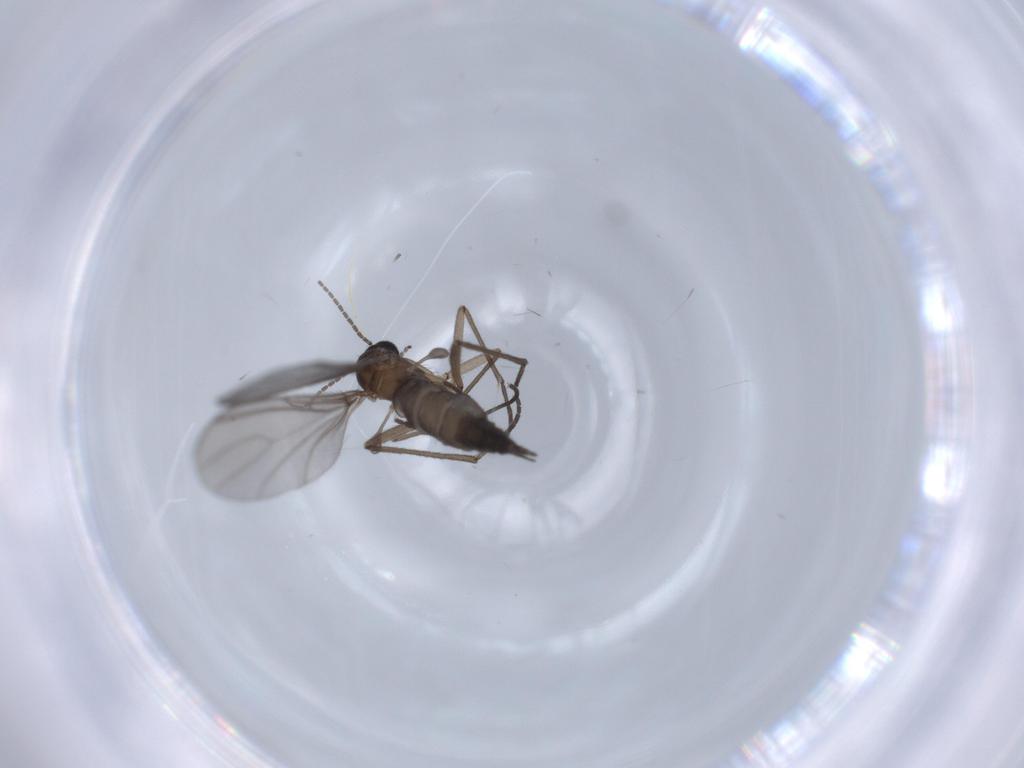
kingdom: Animalia
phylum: Arthropoda
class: Insecta
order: Diptera
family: Sciaridae
